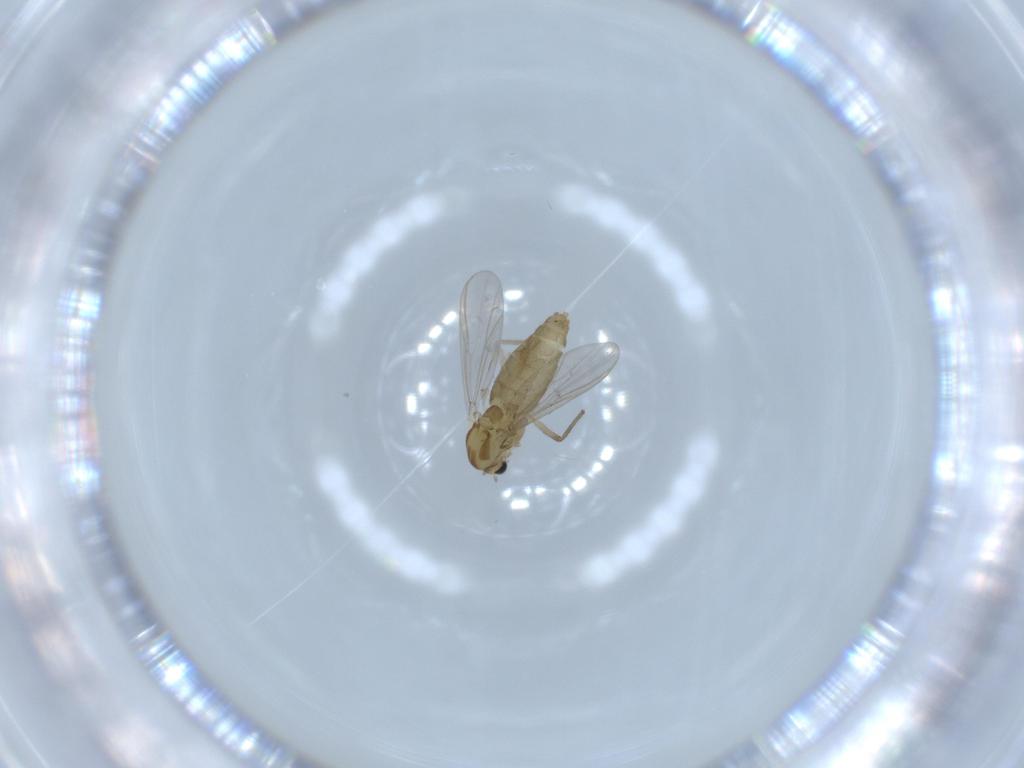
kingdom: Animalia
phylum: Arthropoda
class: Insecta
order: Diptera
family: Chironomidae
